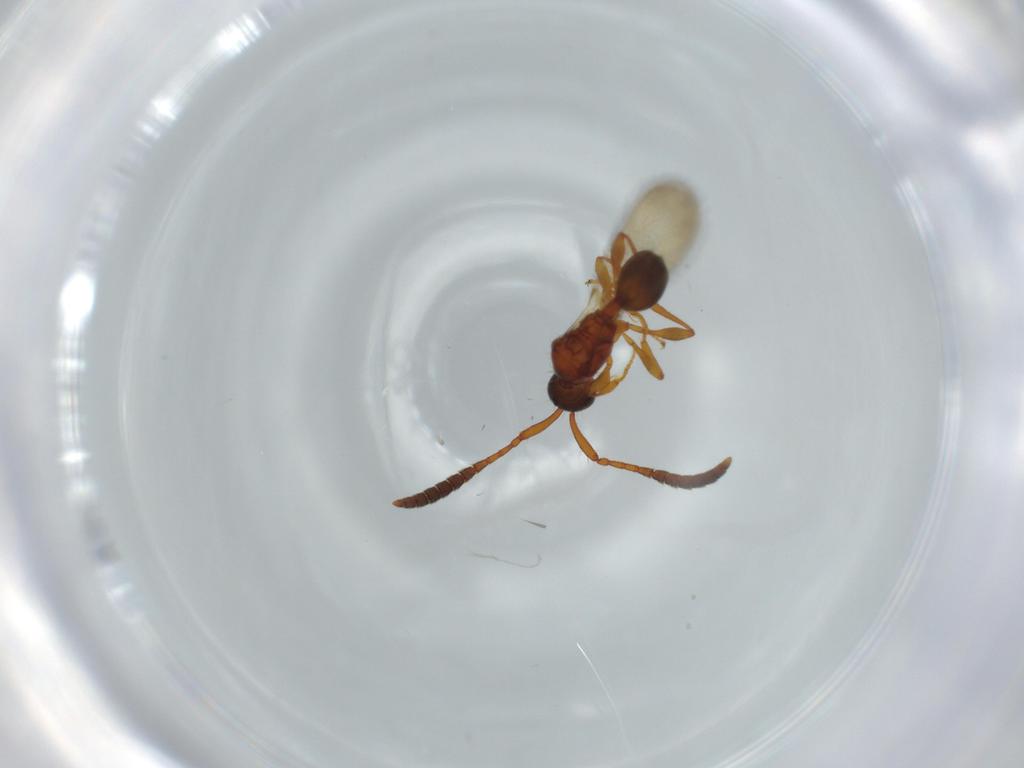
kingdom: Animalia
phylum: Arthropoda
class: Insecta
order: Hymenoptera
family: Diapriidae
